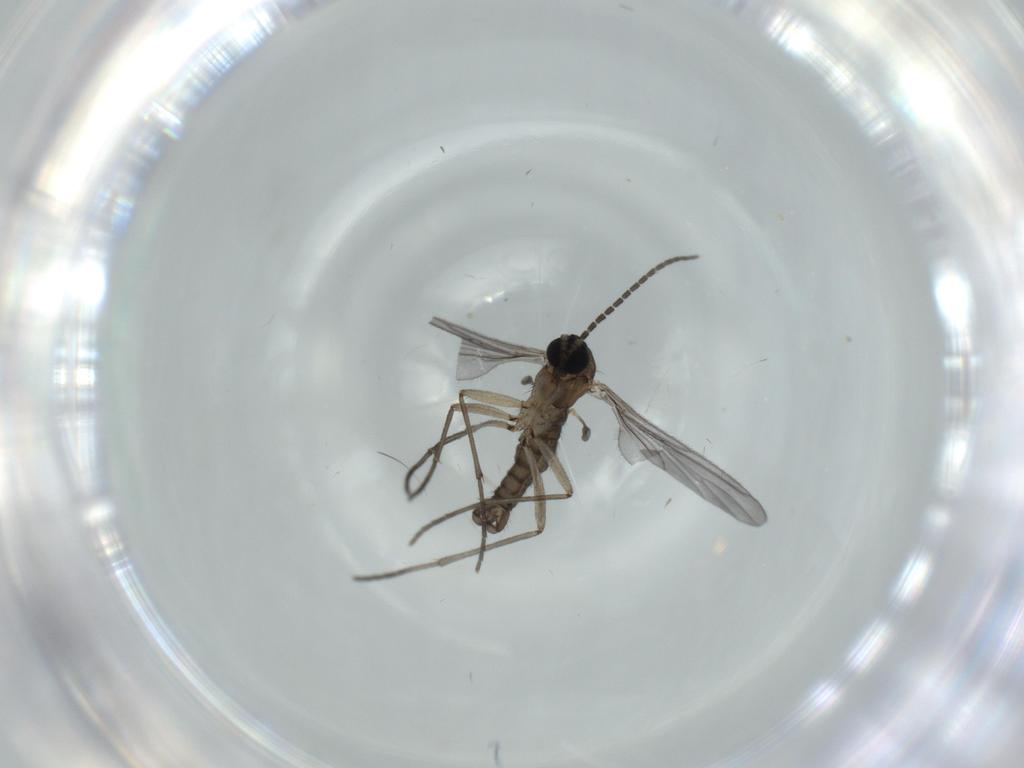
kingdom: Animalia
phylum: Arthropoda
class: Insecta
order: Diptera
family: Sciaridae
